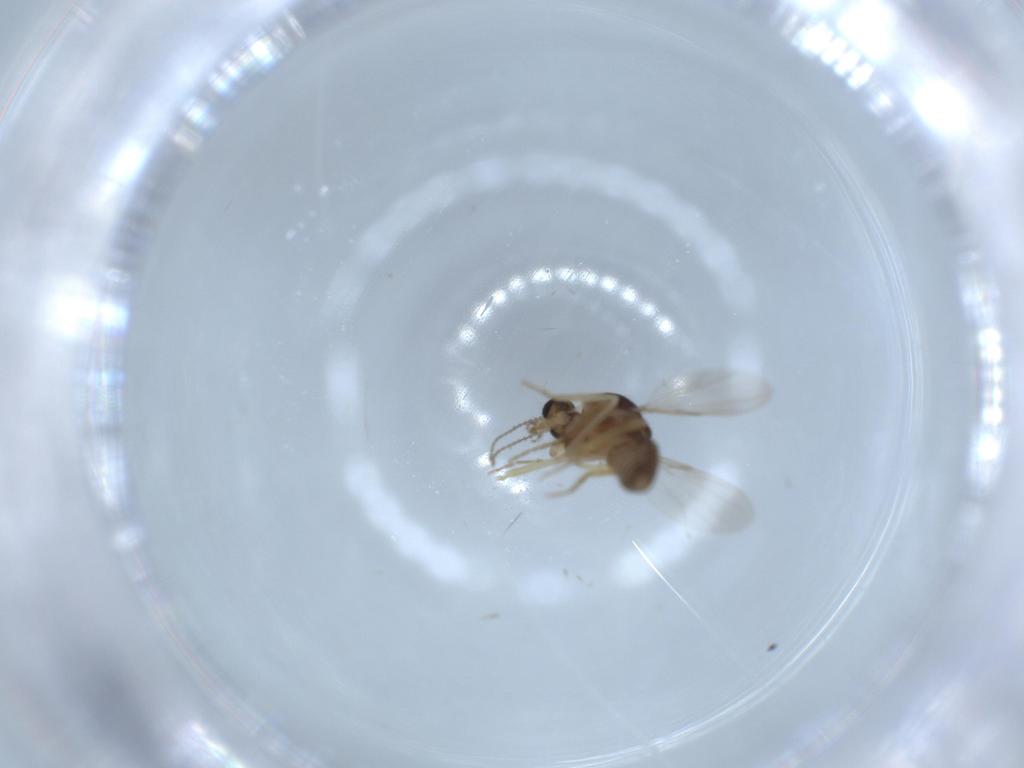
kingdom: Animalia
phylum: Arthropoda
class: Insecta
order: Diptera
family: Ceratopogonidae
